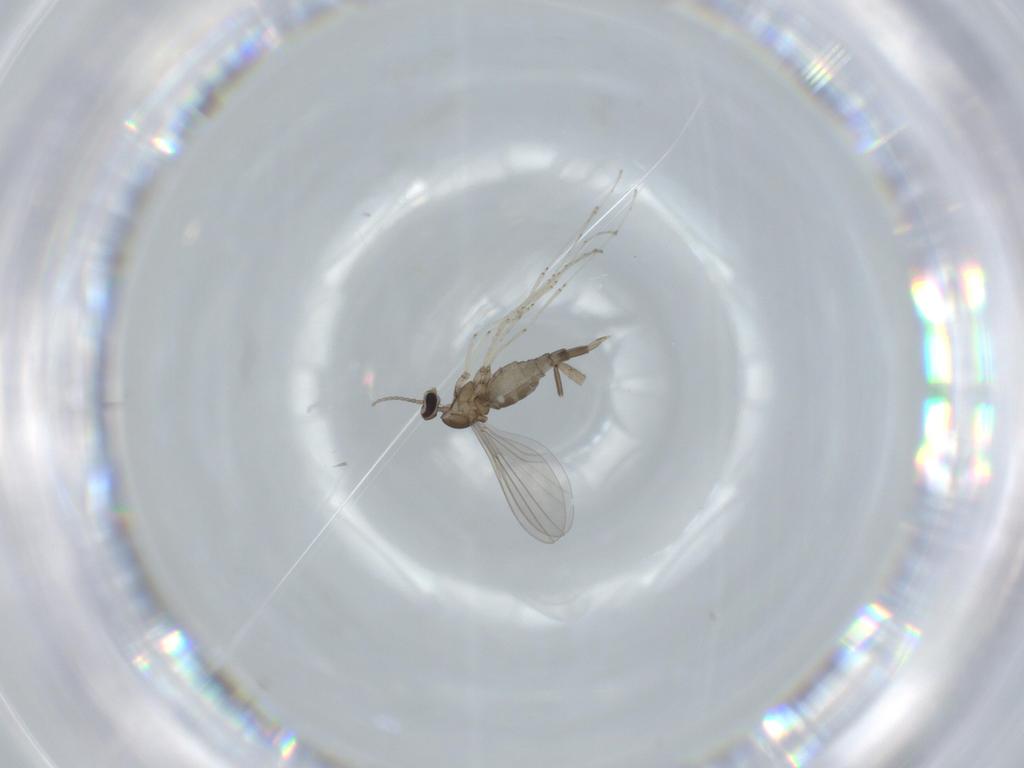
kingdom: Animalia
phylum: Arthropoda
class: Insecta
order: Diptera
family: Cecidomyiidae
